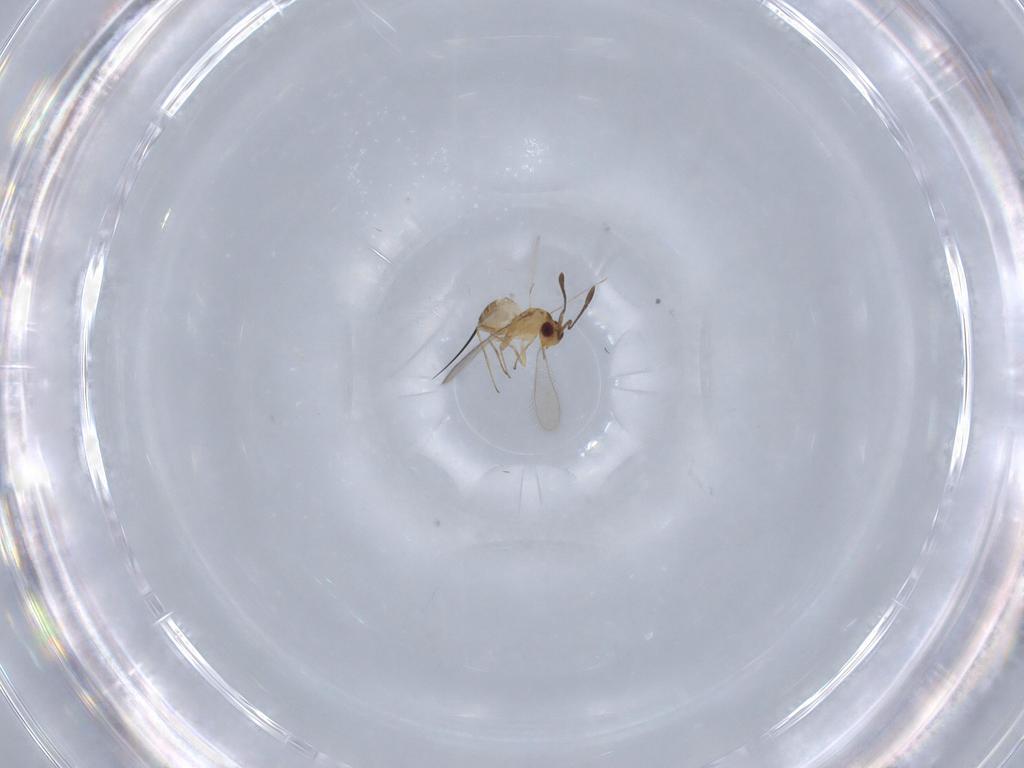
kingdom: Animalia
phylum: Arthropoda
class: Insecta
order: Hymenoptera
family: Mymaridae
